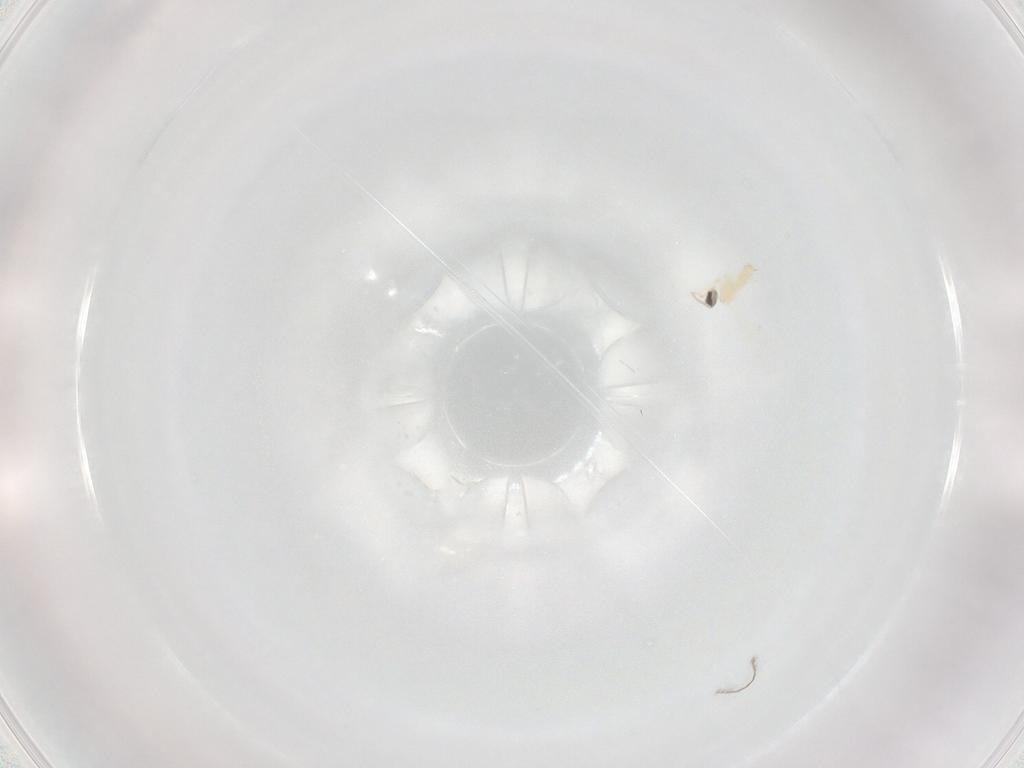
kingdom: Animalia
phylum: Arthropoda
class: Insecta
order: Diptera
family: Cecidomyiidae
